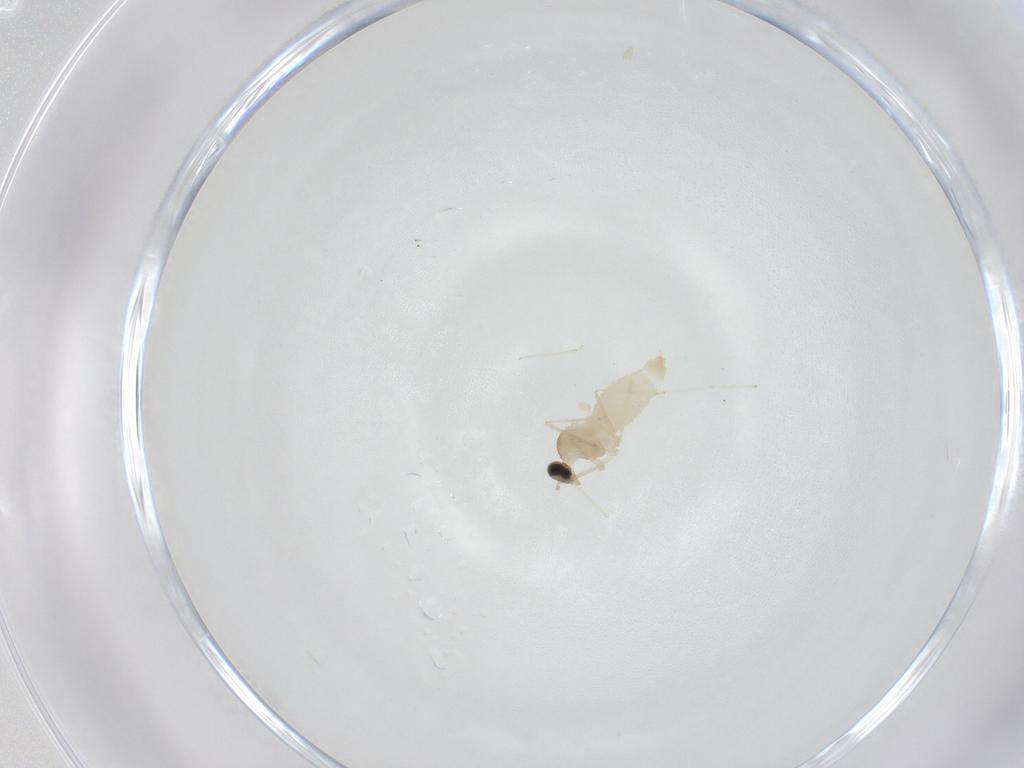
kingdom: Animalia
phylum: Arthropoda
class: Insecta
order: Diptera
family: Cecidomyiidae
